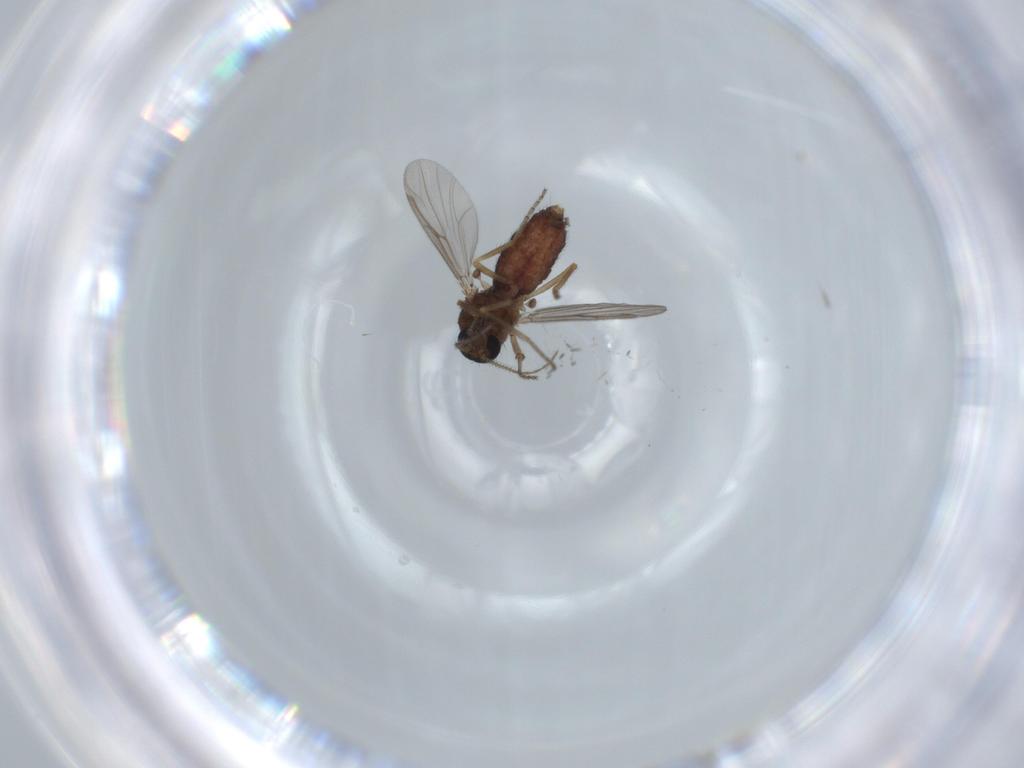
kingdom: Animalia
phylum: Arthropoda
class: Insecta
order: Diptera
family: Ceratopogonidae
